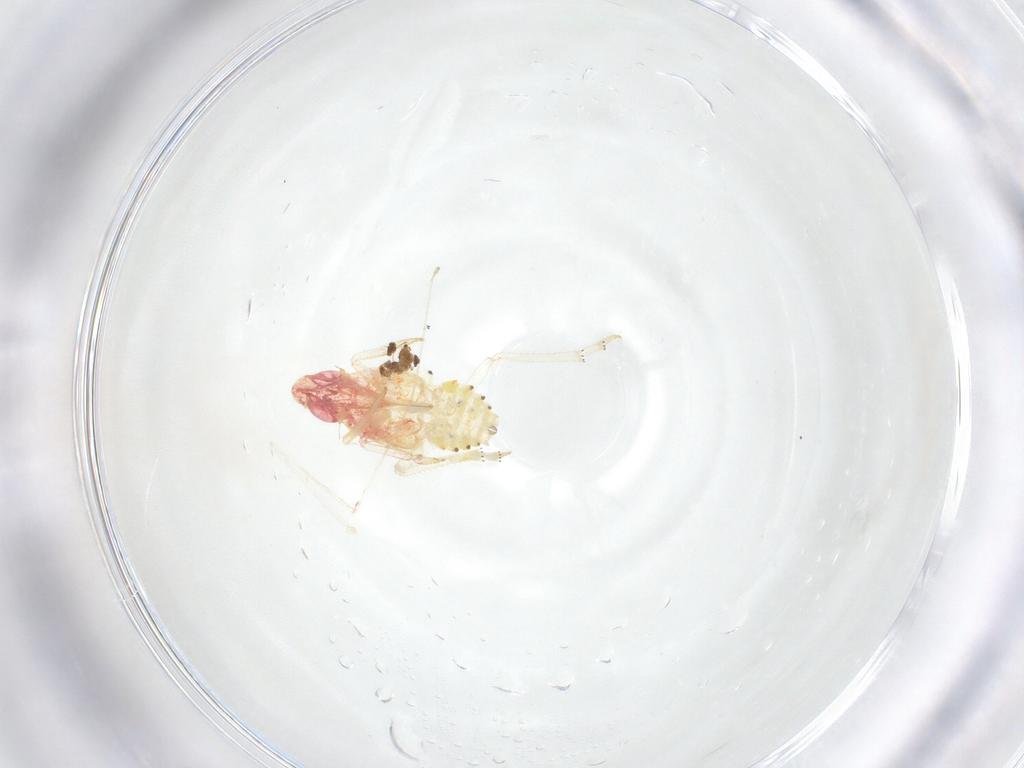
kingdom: Animalia
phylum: Arthropoda
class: Insecta
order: Hemiptera
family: Tropiduchidae
